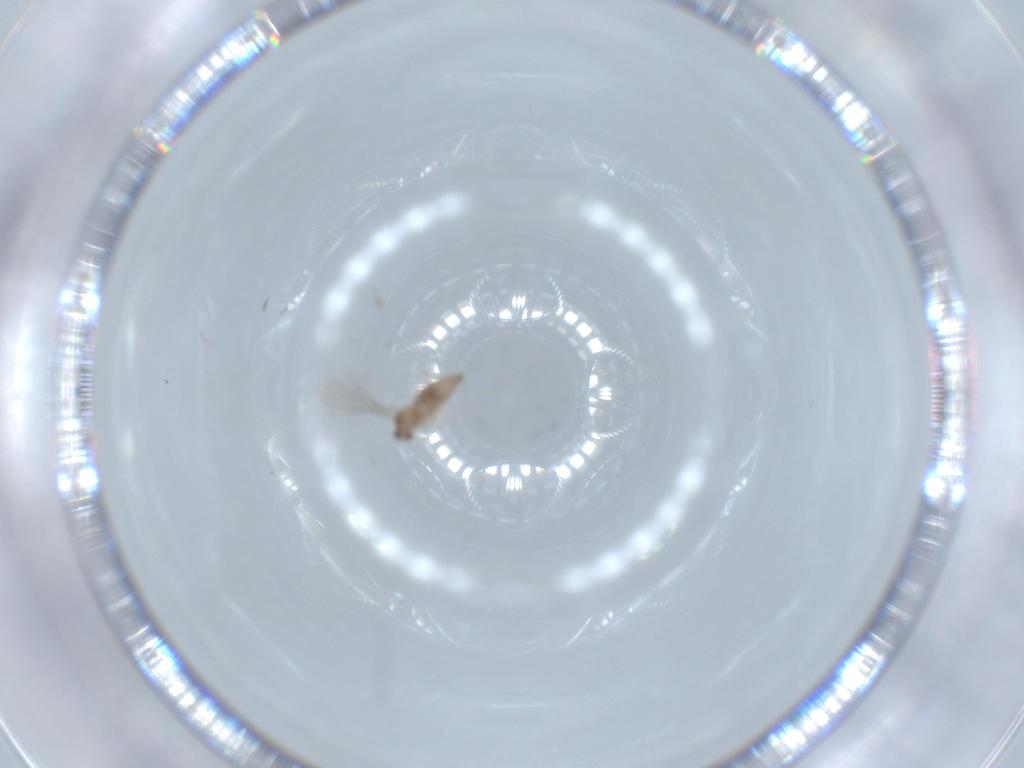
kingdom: Animalia
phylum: Arthropoda
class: Insecta
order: Diptera
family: Cecidomyiidae
